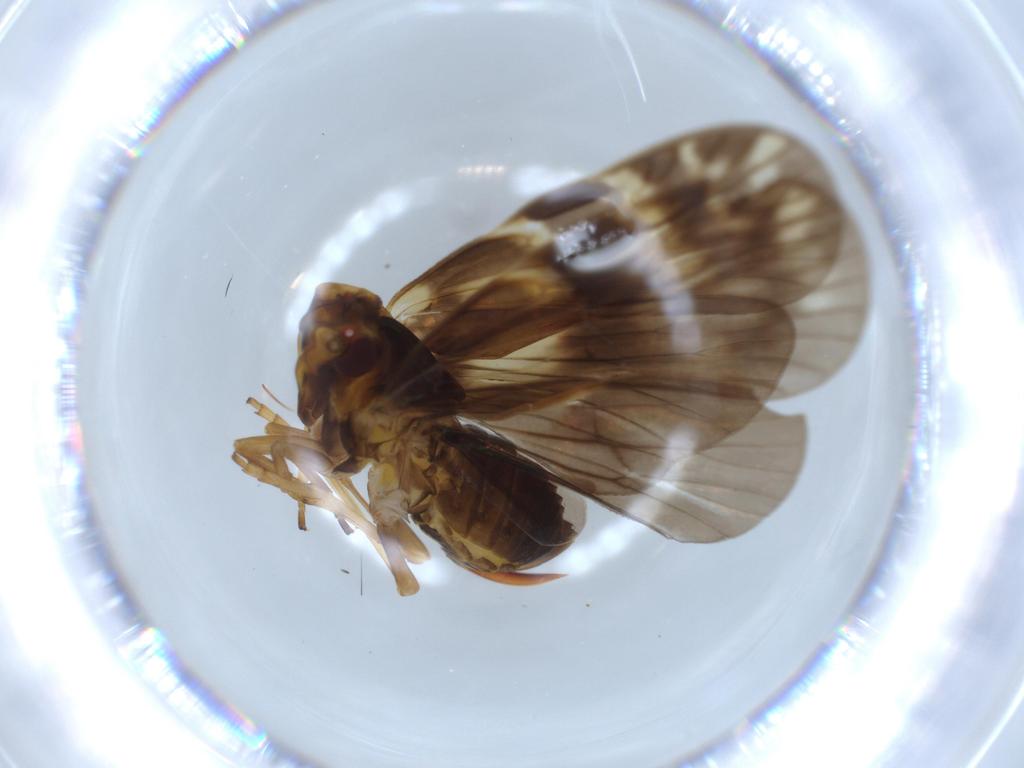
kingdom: Animalia
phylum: Arthropoda
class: Insecta
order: Hemiptera
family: Cixiidae
